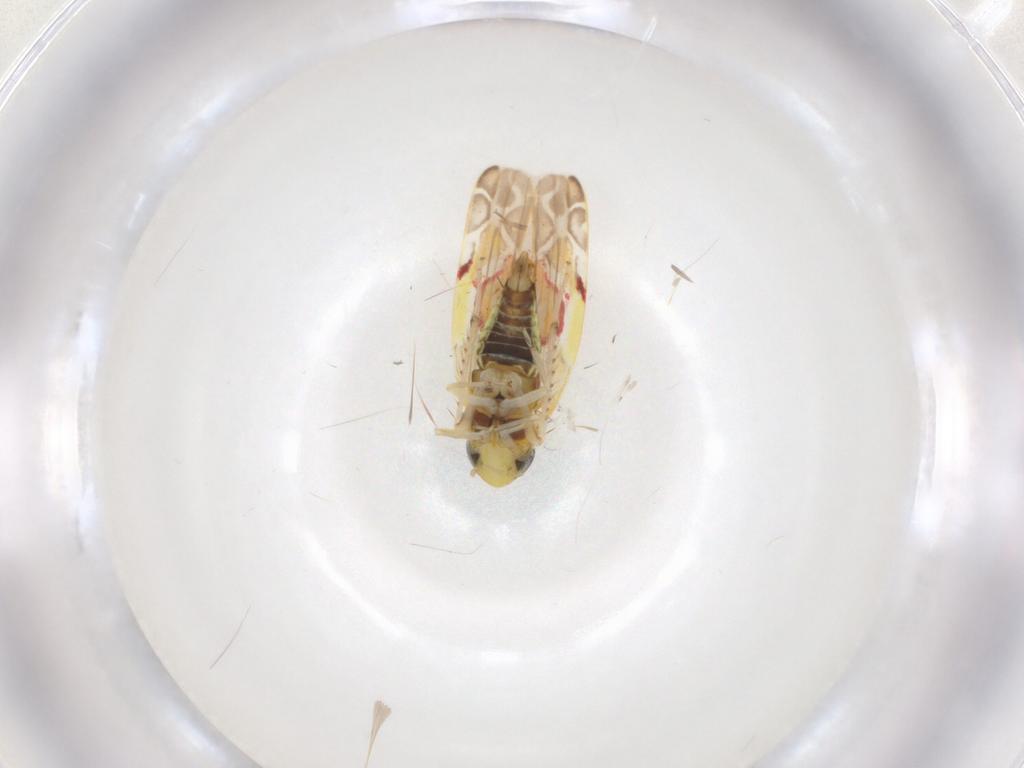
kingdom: Animalia
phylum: Arthropoda
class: Insecta
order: Hemiptera
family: Cicadellidae
